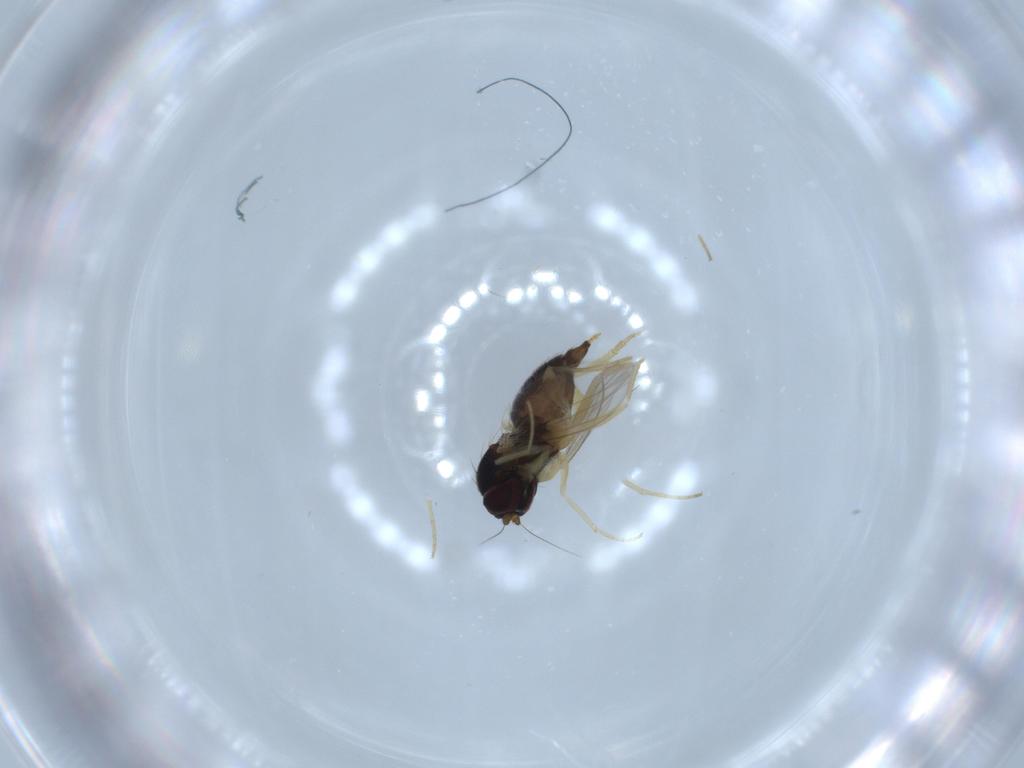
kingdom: Animalia
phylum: Arthropoda
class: Insecta
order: Diptera
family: Dolichopodidae
